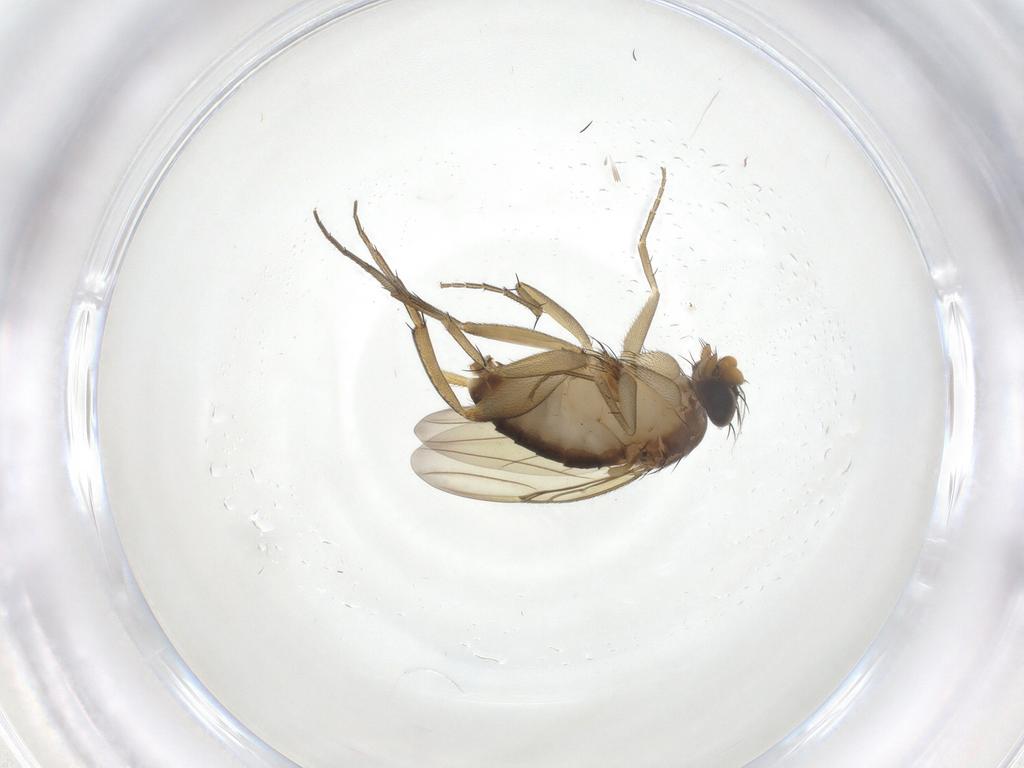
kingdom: Animalia
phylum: Arthropoda
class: Insecta
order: Diptera
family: Phoridae
